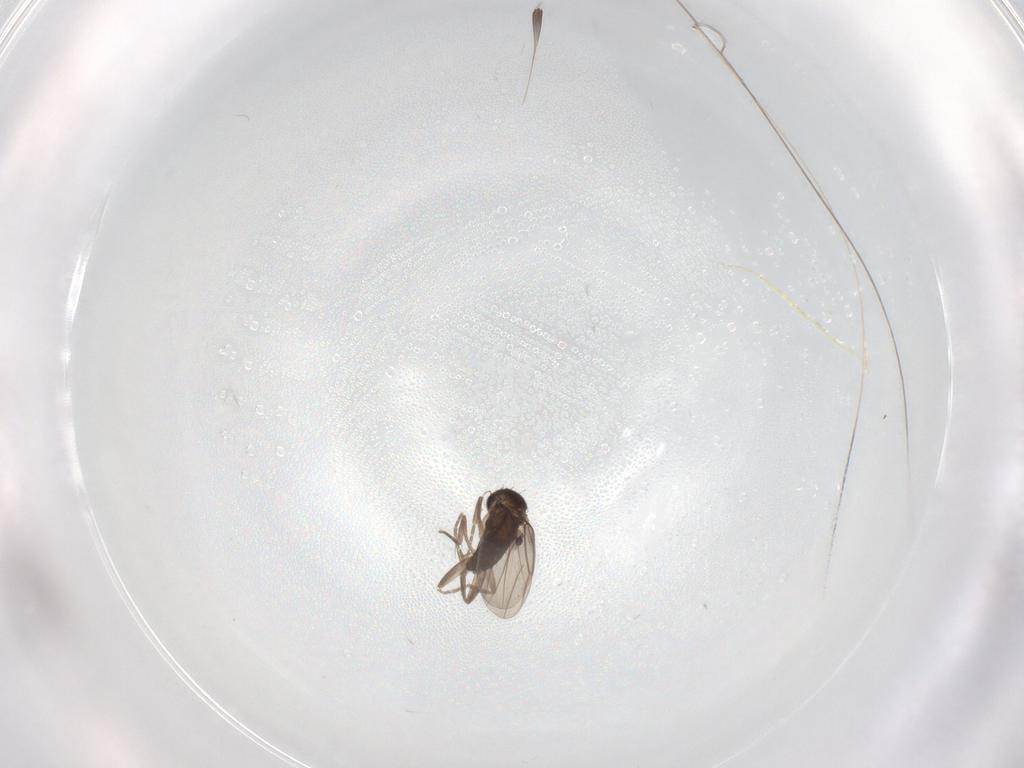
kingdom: Animalia
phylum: Arthropoda
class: Insecta
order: Diptera
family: Phoridae
